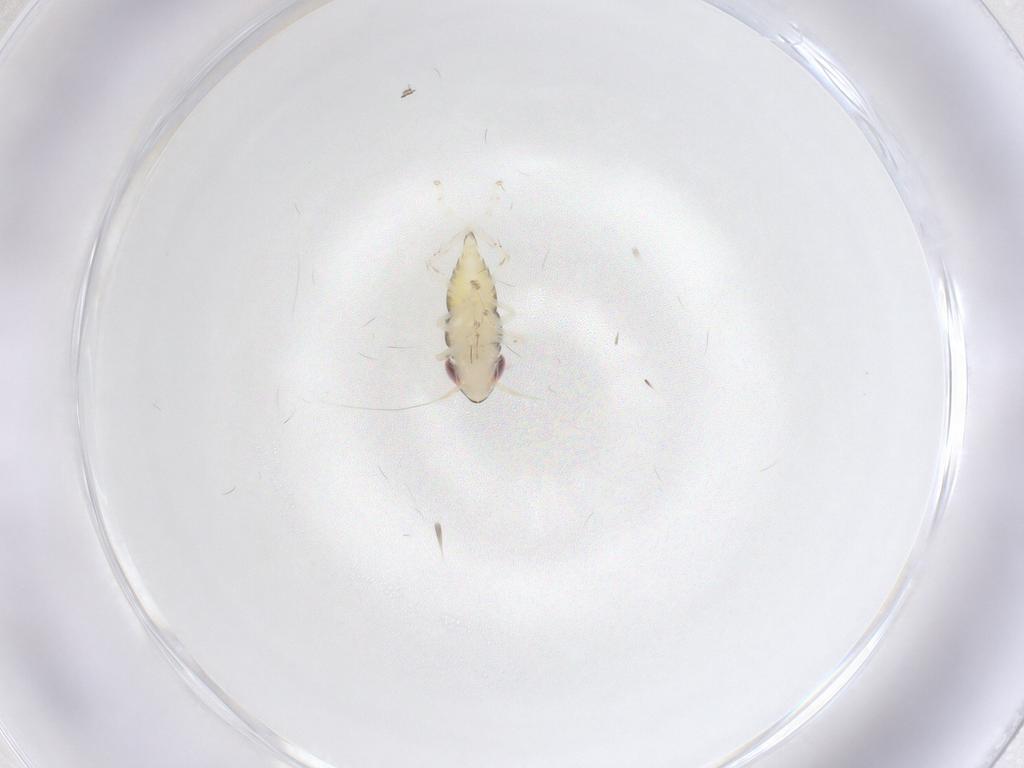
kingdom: Animalia
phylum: Arthropoda
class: Insecta
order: Hemiptera
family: Cicadellidae
